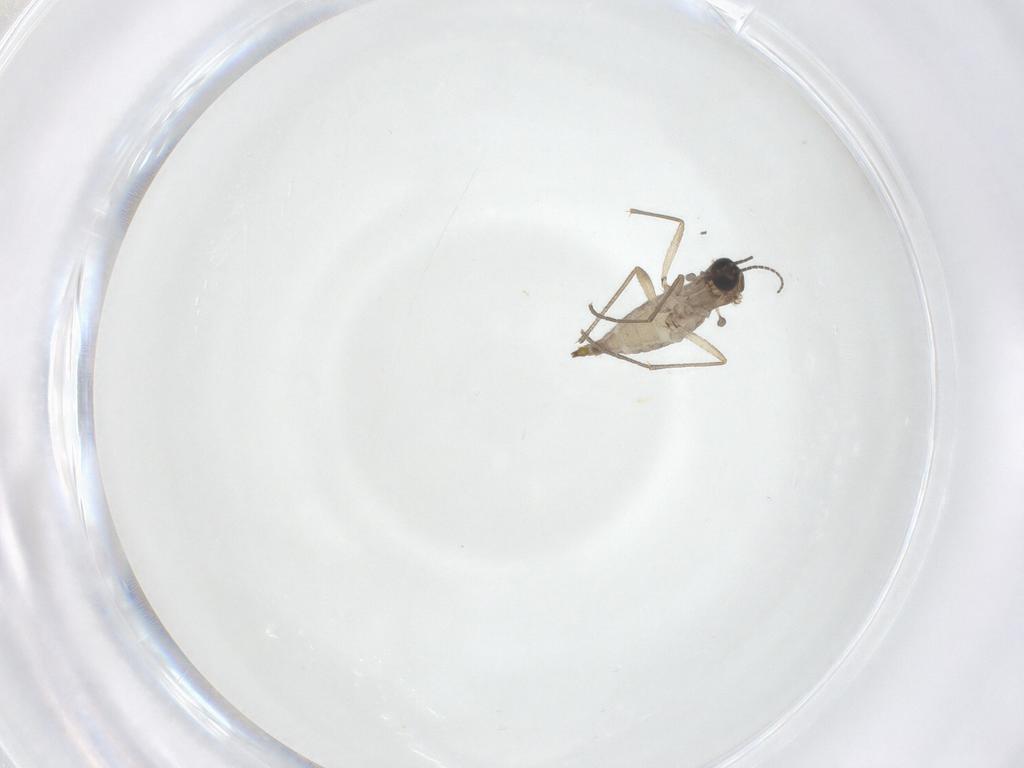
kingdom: Animalia
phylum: Arthropoda
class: Insecta
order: Diptera
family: Sciaridae
